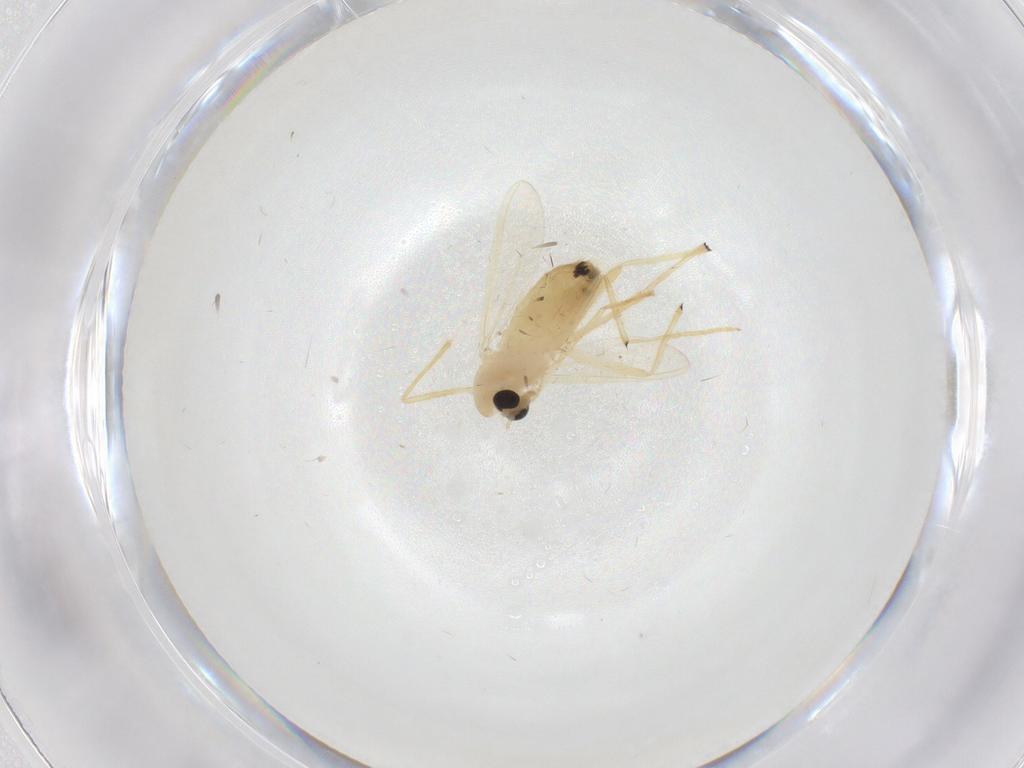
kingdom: Animalia
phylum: Arthropoda
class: Insecta
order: Diptera
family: Chironomidae
